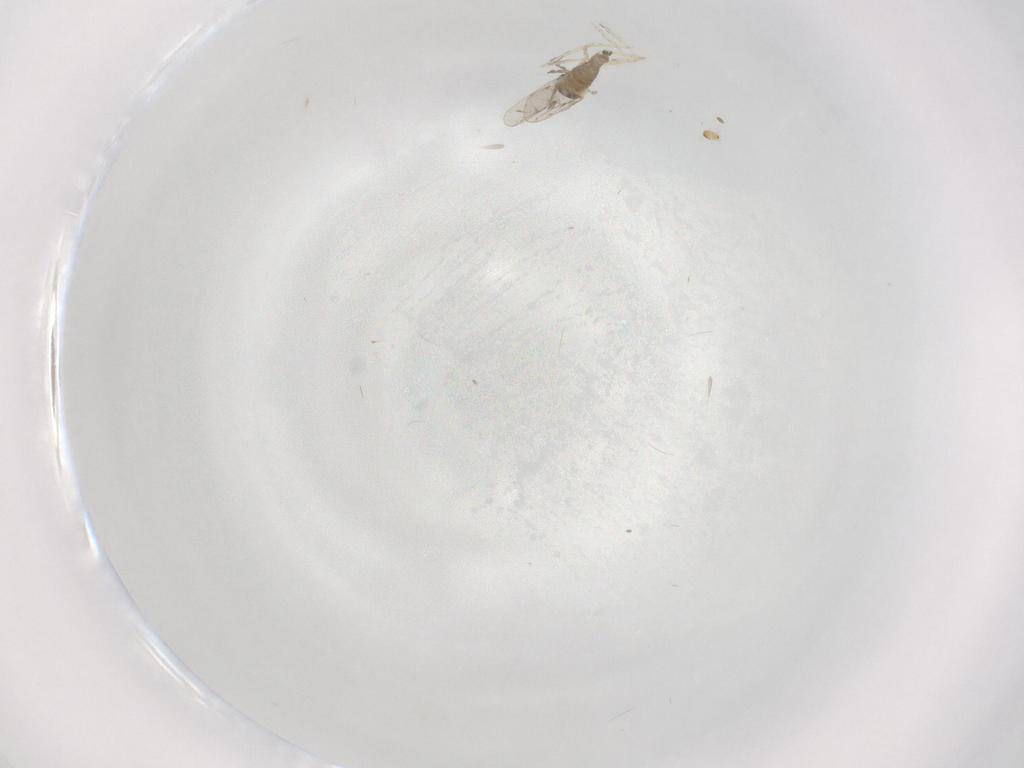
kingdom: Animalia
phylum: Arthropoda
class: Insecta
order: Diptera
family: Cecidomyiidae
